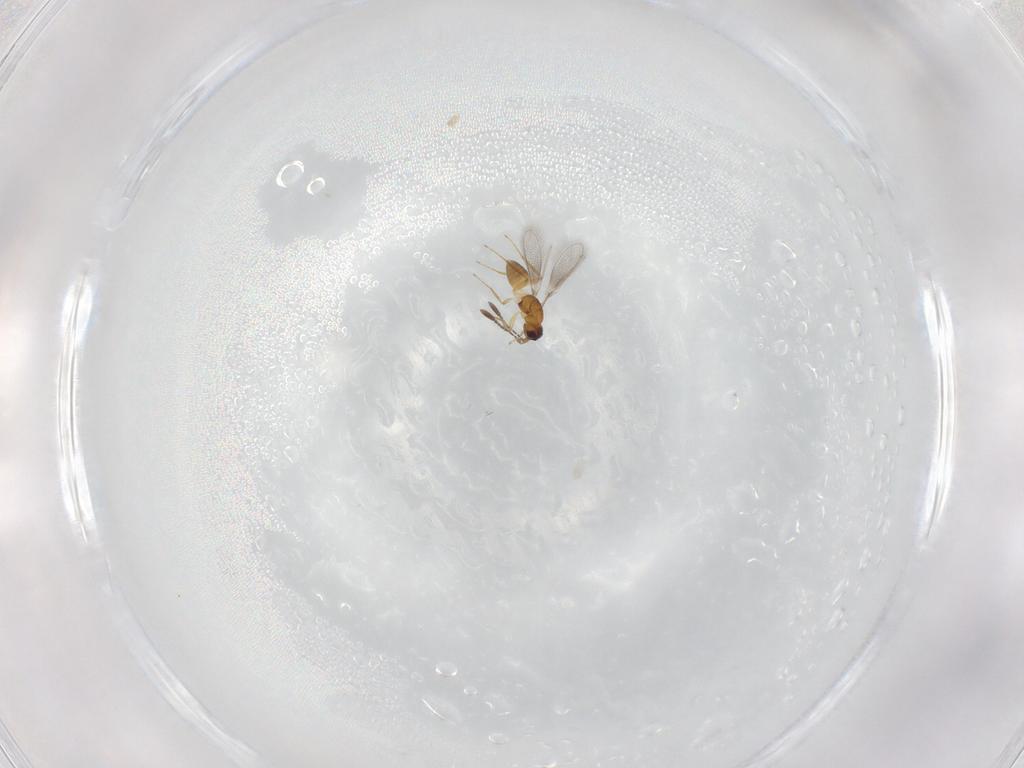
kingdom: Animalia
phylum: Arthropoda
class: Insecta
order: Hymenoptera
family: Mymaridae
